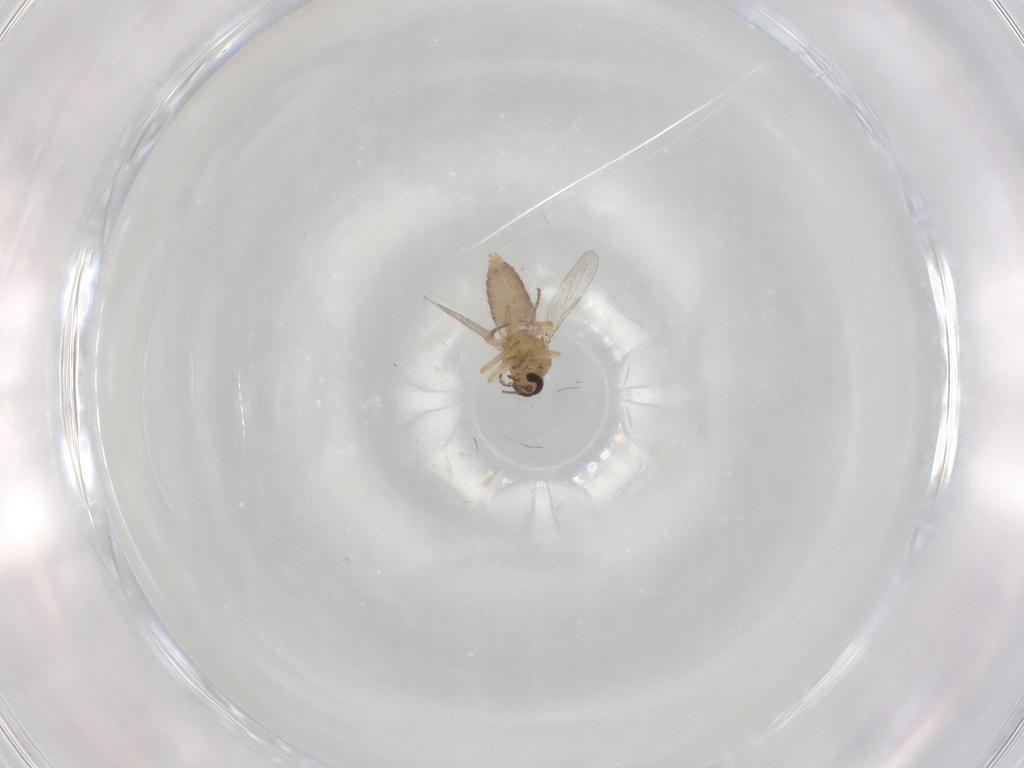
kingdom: Animalia
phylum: Arthropoda
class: Insecta
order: Diptera
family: Ceratopogonidae
